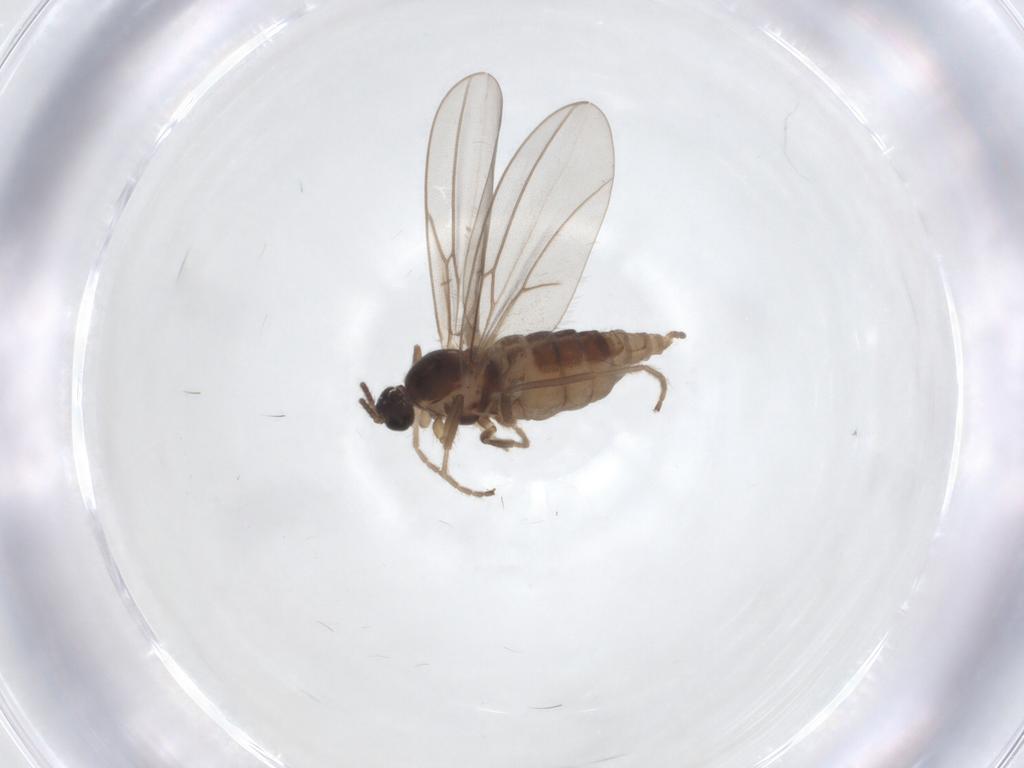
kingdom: Animalia
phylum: Arthropoda
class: Insecta
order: Diptera
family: Cecidomyiidae
